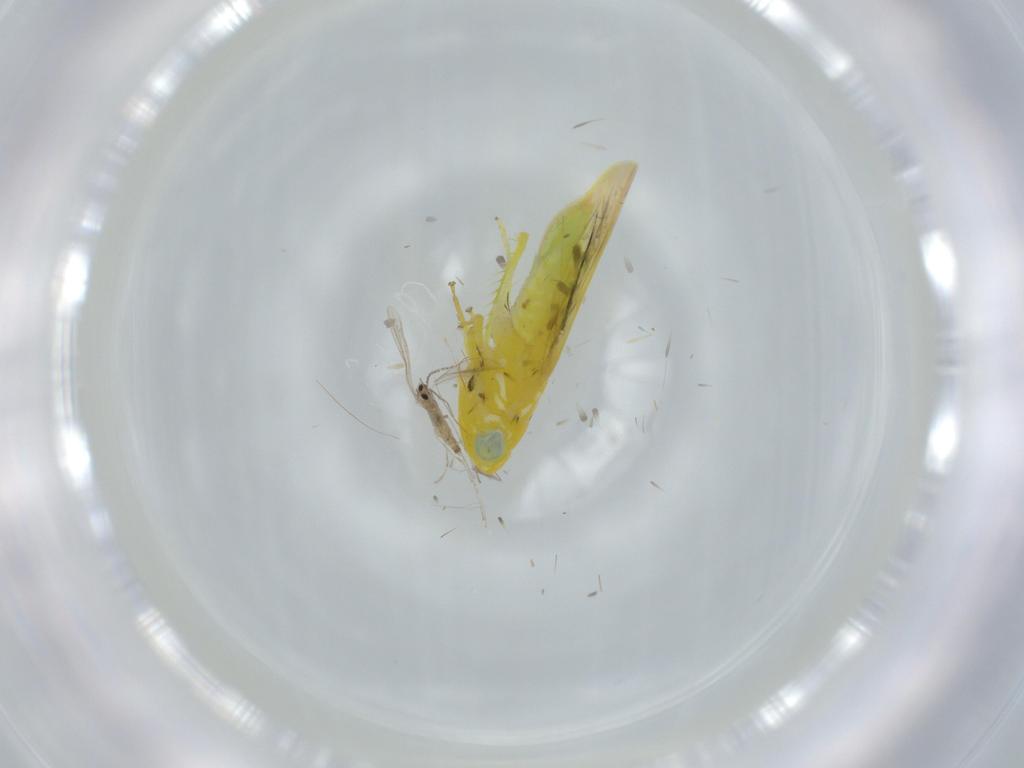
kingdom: Animalia
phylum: Arthropoda
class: Insecta
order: Hemiptera
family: Cicadellidae
